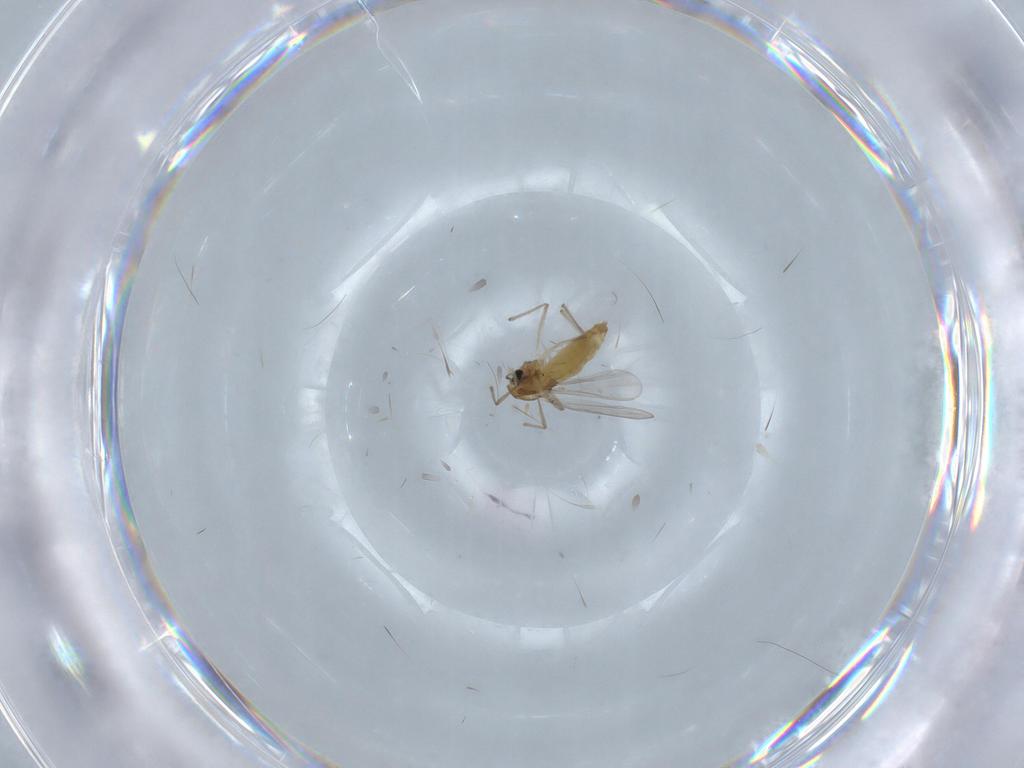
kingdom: Animalia
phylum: Arthropoda
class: Insecta
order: Diptera
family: Chironomidae
